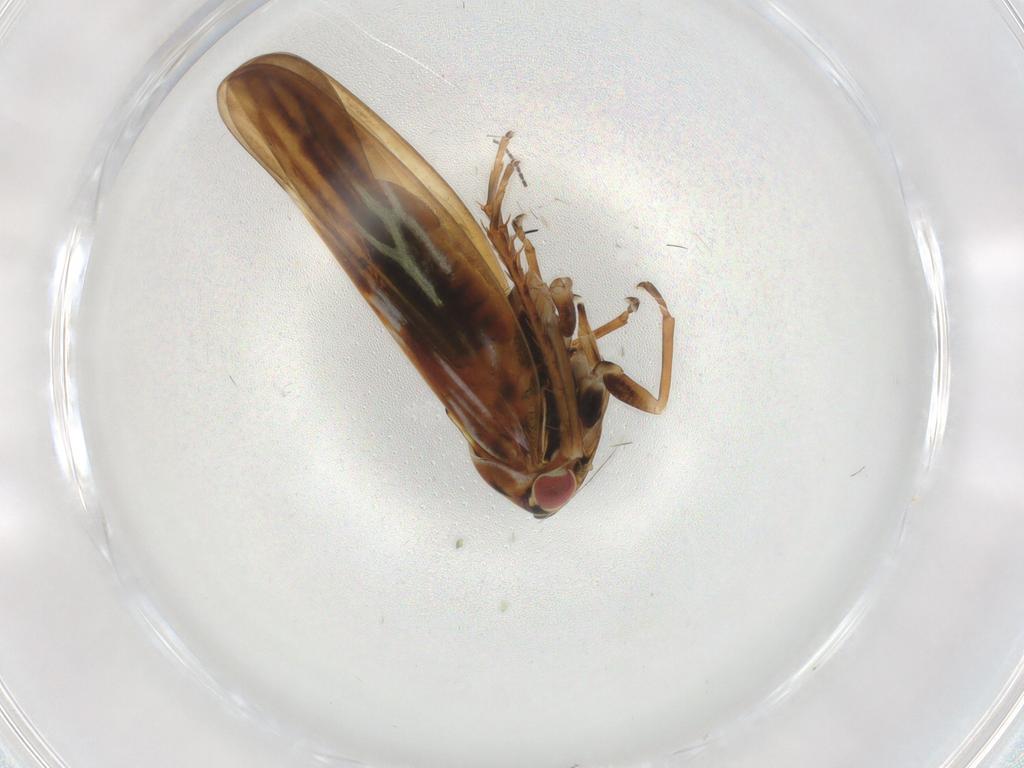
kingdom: Animalia
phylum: Arthropoda
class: Insecta
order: Hemiptera
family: Cicadellidae
